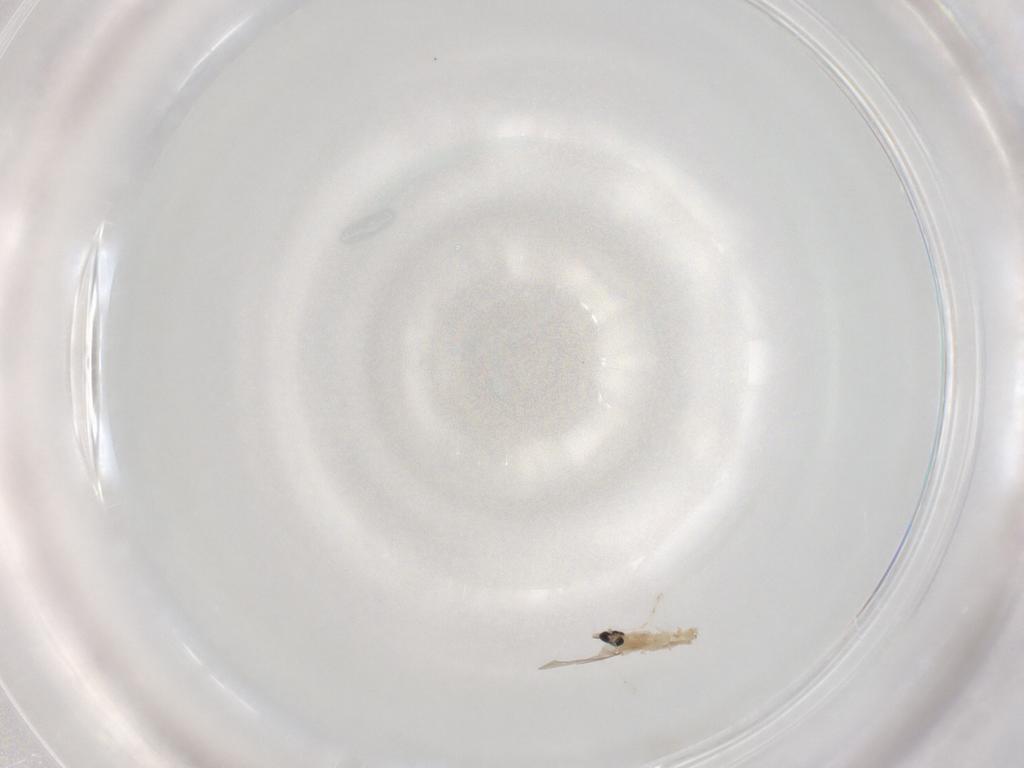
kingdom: Animalia
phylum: Arthropoda
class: Insecta
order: Diptera
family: Cecidomyiidae
